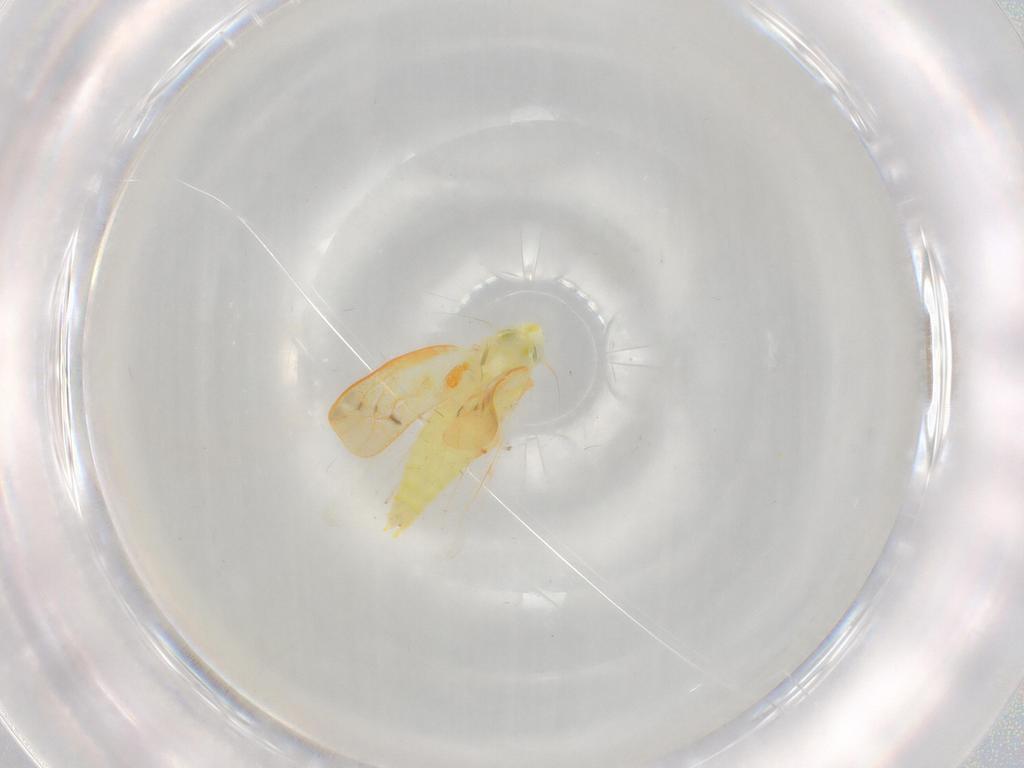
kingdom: Animalia
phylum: Arthropoda
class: Insecta
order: Hemiptera
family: Cicadellidae
